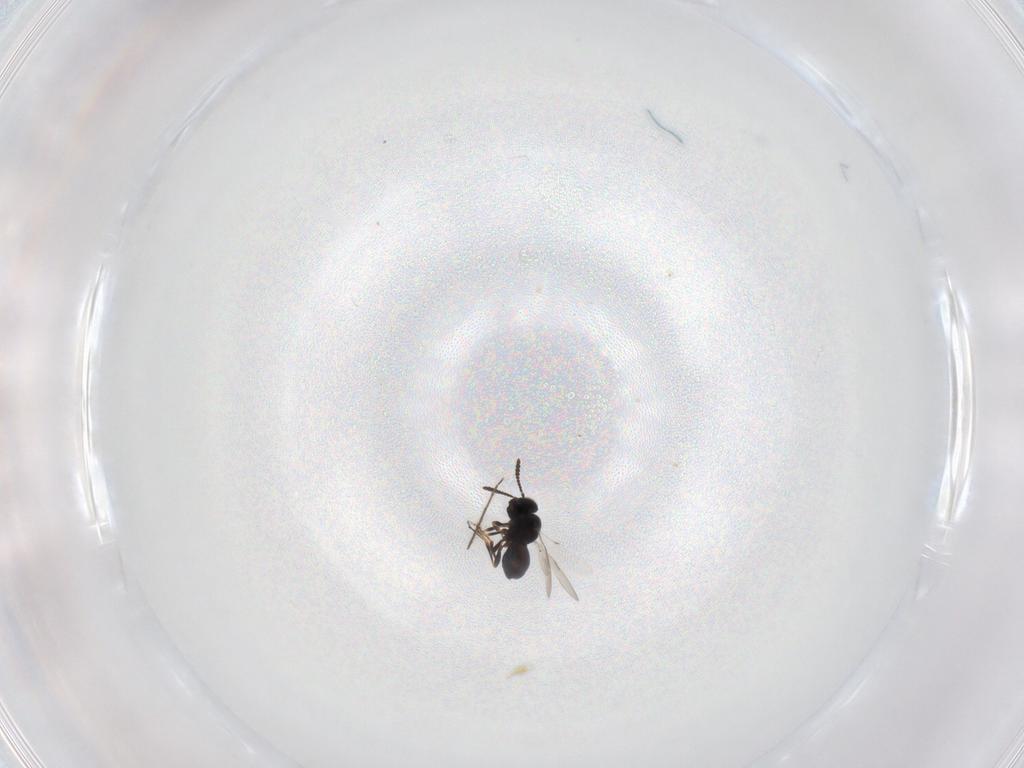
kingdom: Animalia
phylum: Arthropoda
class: Insecta
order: Hymenoptera
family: Scelionidae
